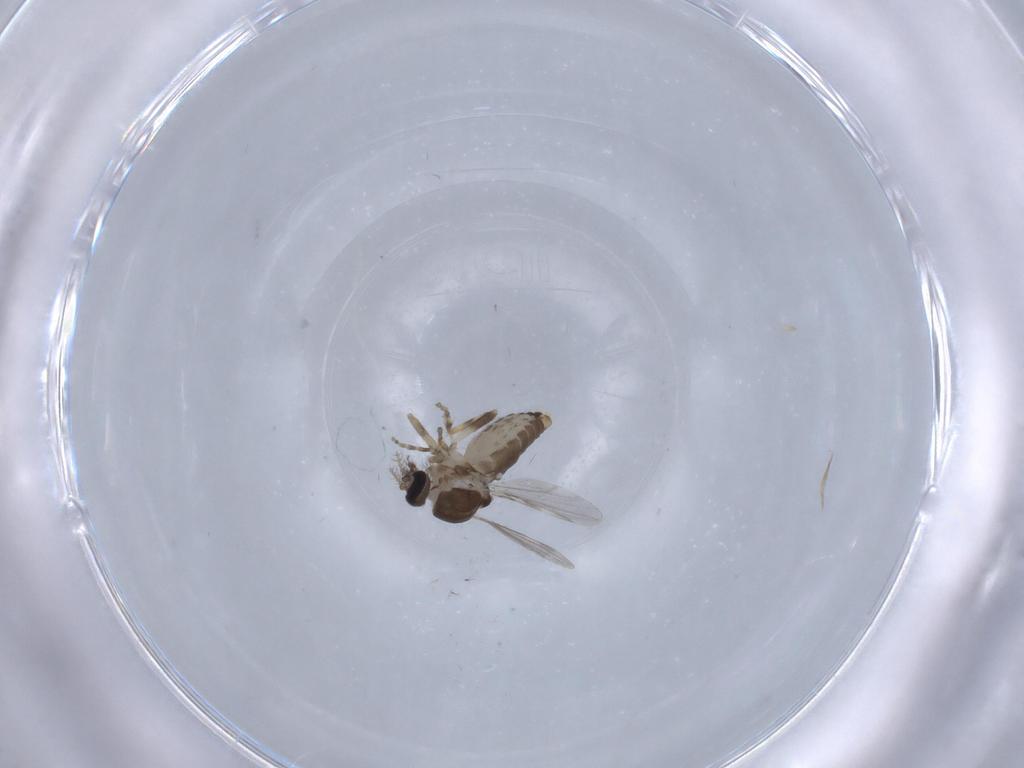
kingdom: Animalia
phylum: Arthropoda
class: Insecta
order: Diptera
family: Ceratopogonidae
